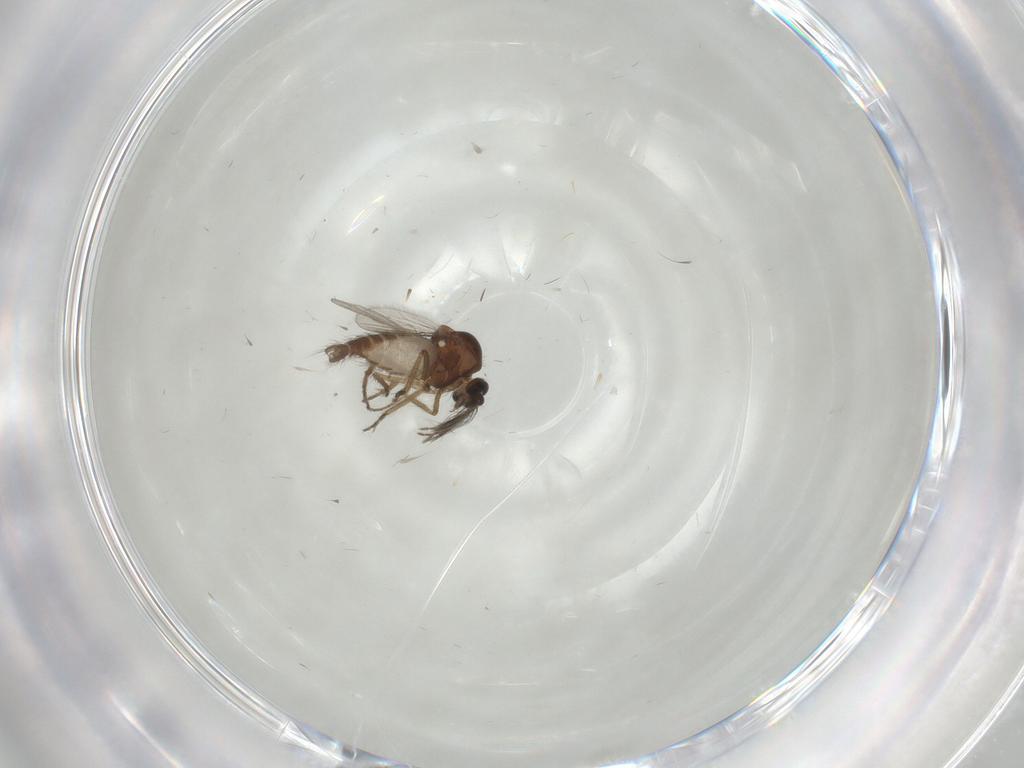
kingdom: Animalia
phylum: Arthropoda
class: Insecta
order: Diptera
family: Ceratopogonidae
